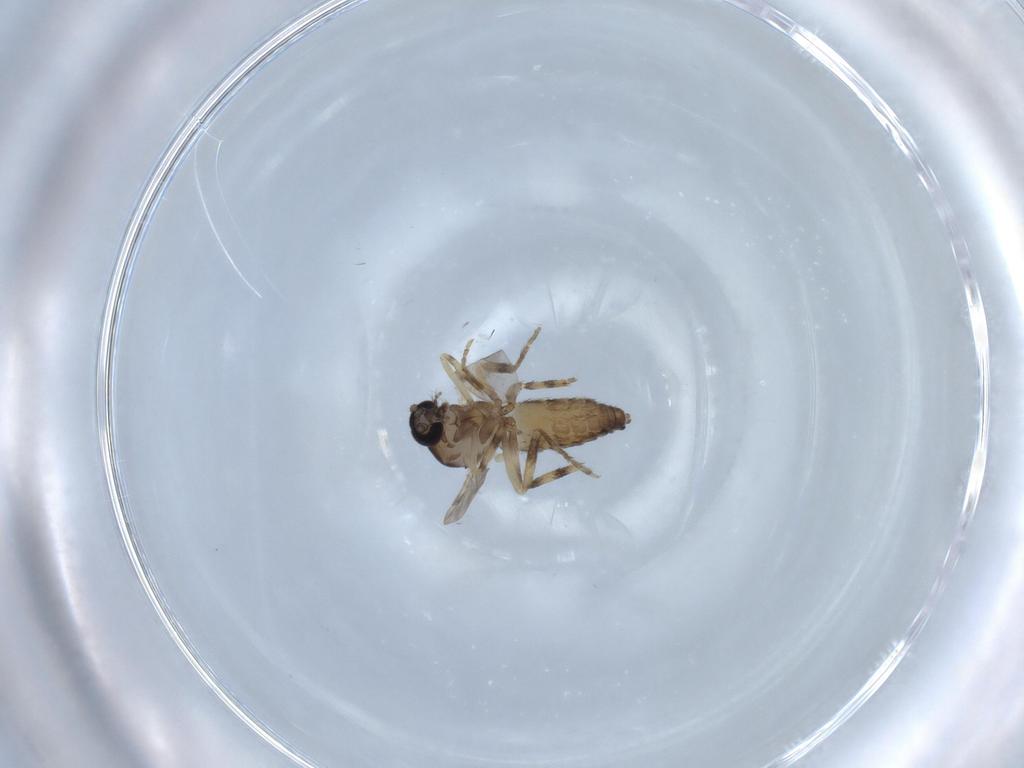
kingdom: Animalia
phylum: Arthropoda
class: Insecta
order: Diptera
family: Ceratopogonidae
